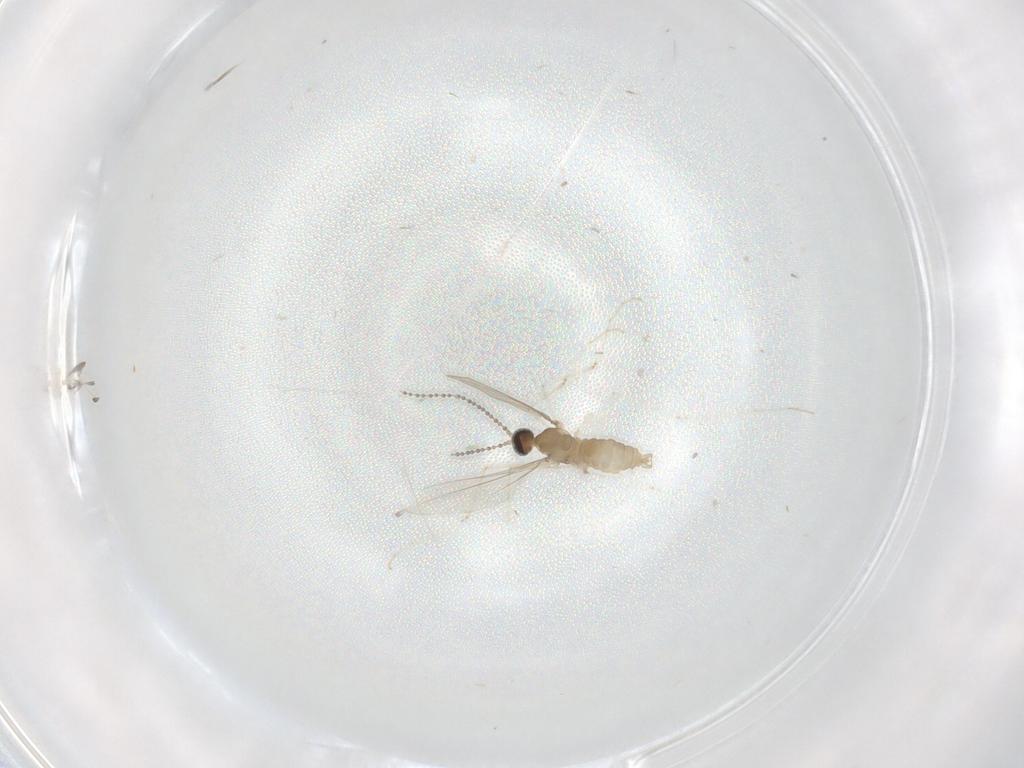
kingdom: Animalia
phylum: Arthropoda
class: Insecta
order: Diptera
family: Cecidomyiidae
